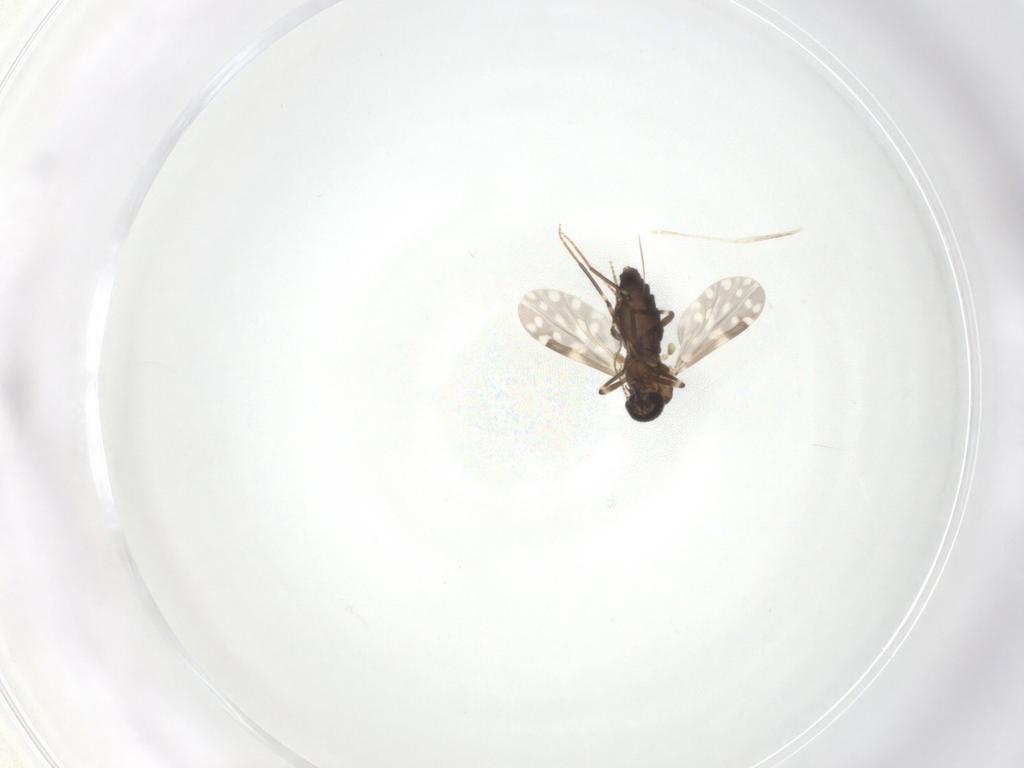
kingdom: Animalia
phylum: Arthropoda
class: Insecta
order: Diptera
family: Ceratopogonidae
